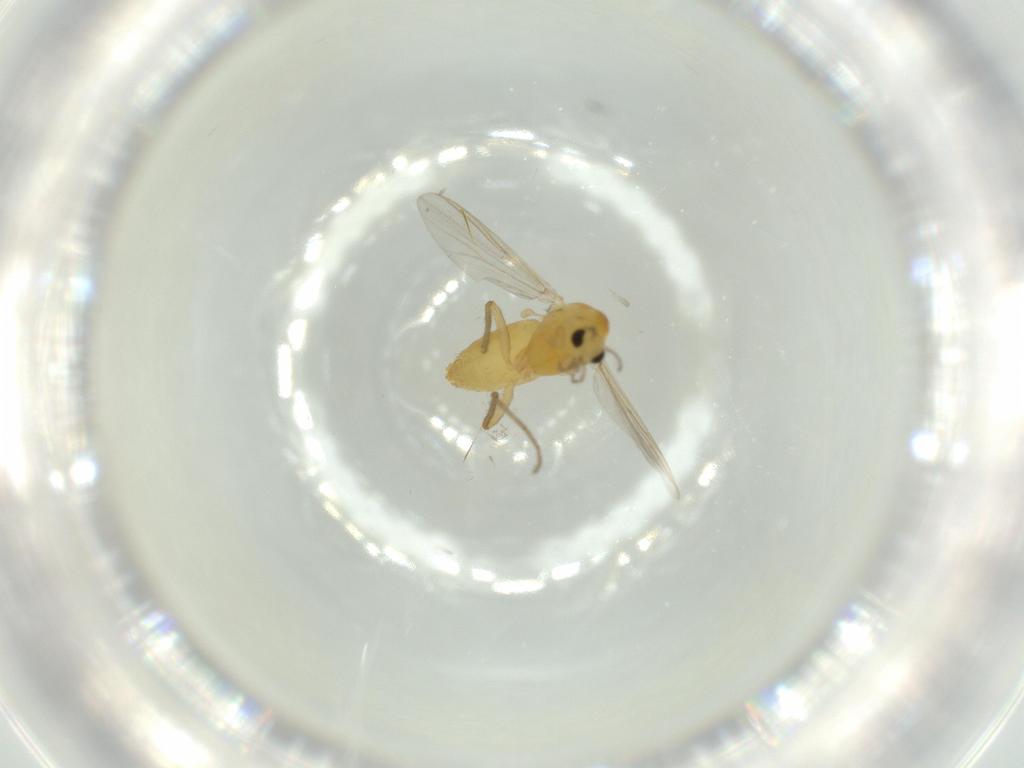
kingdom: Animalia
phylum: Arthropoda
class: Insecta
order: Diptera
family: Chironomidae
